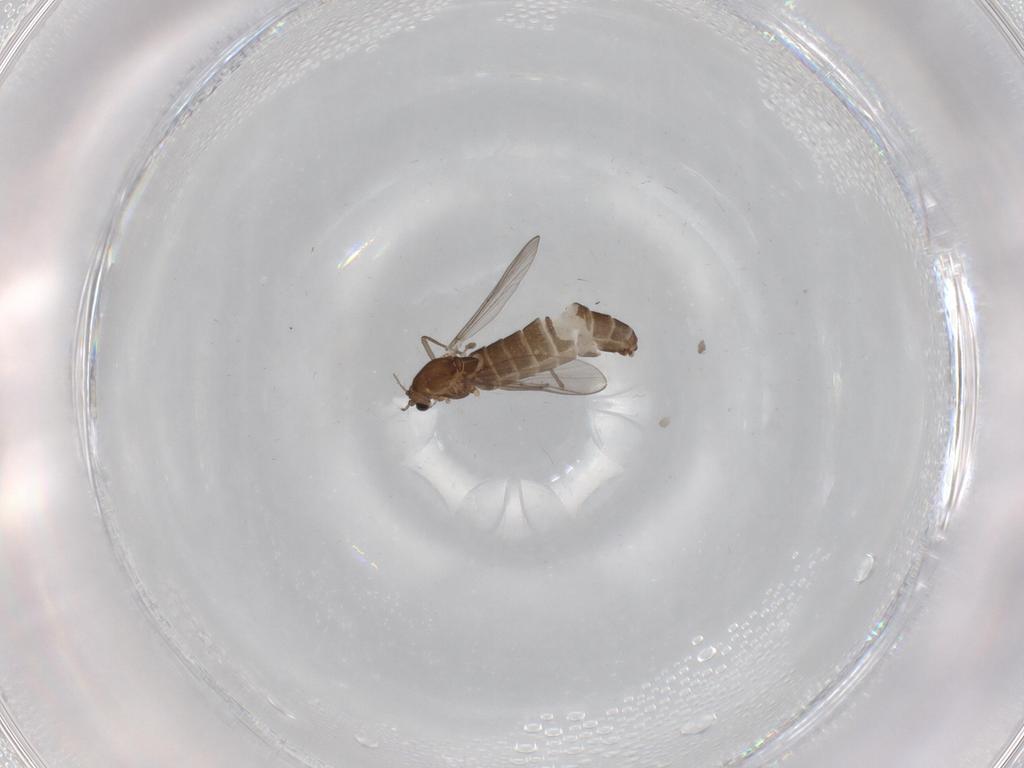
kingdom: Animalia
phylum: Arthropoda
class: Insecta
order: Diptera
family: Chironomidae
